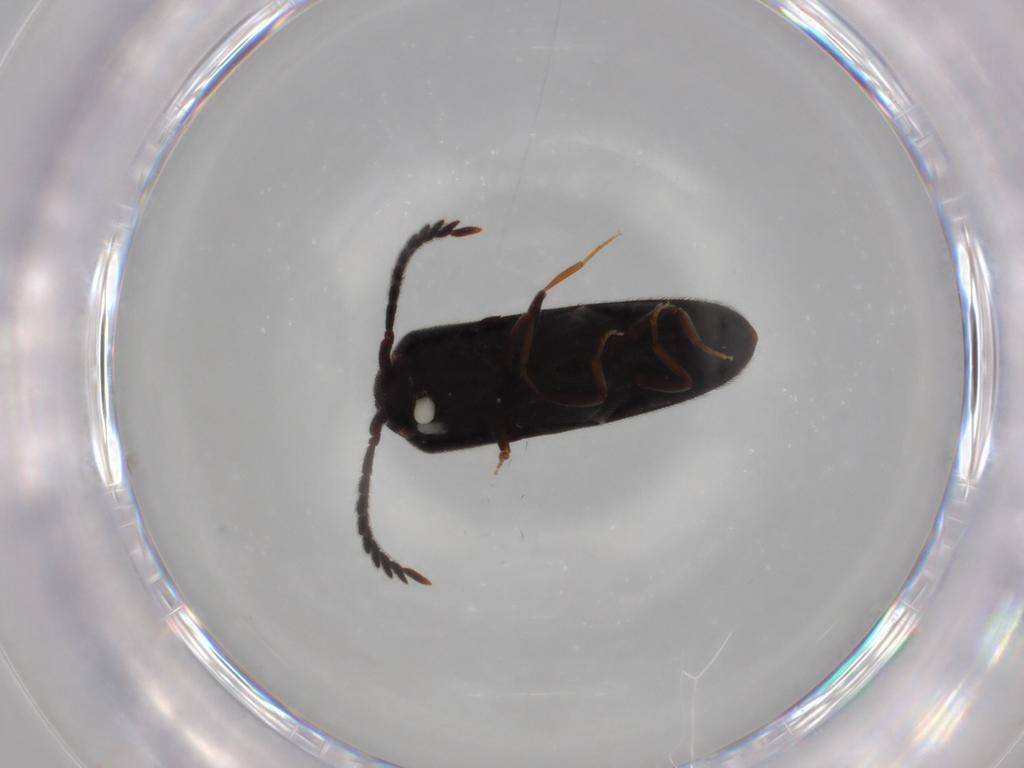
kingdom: Animalia
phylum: Arthropoda
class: Insecta
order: Coleoptera
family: Eucnemidae
